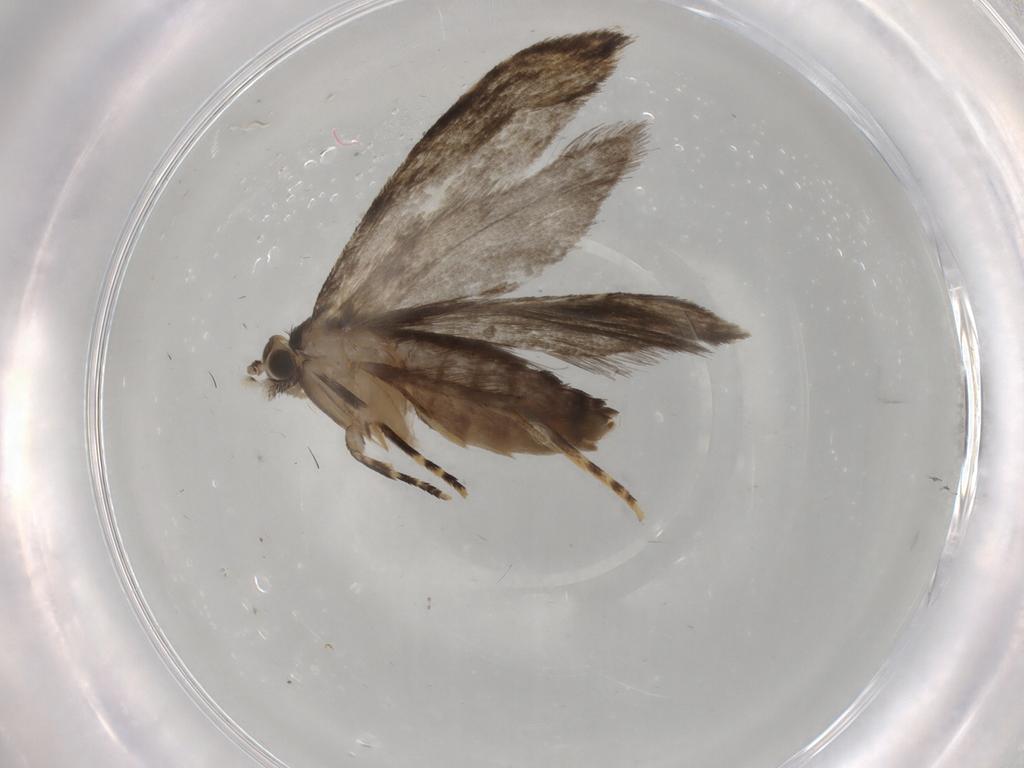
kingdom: Animalia
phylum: Arthropoda
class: Insecta
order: Lepidoptera
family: Tineidae
